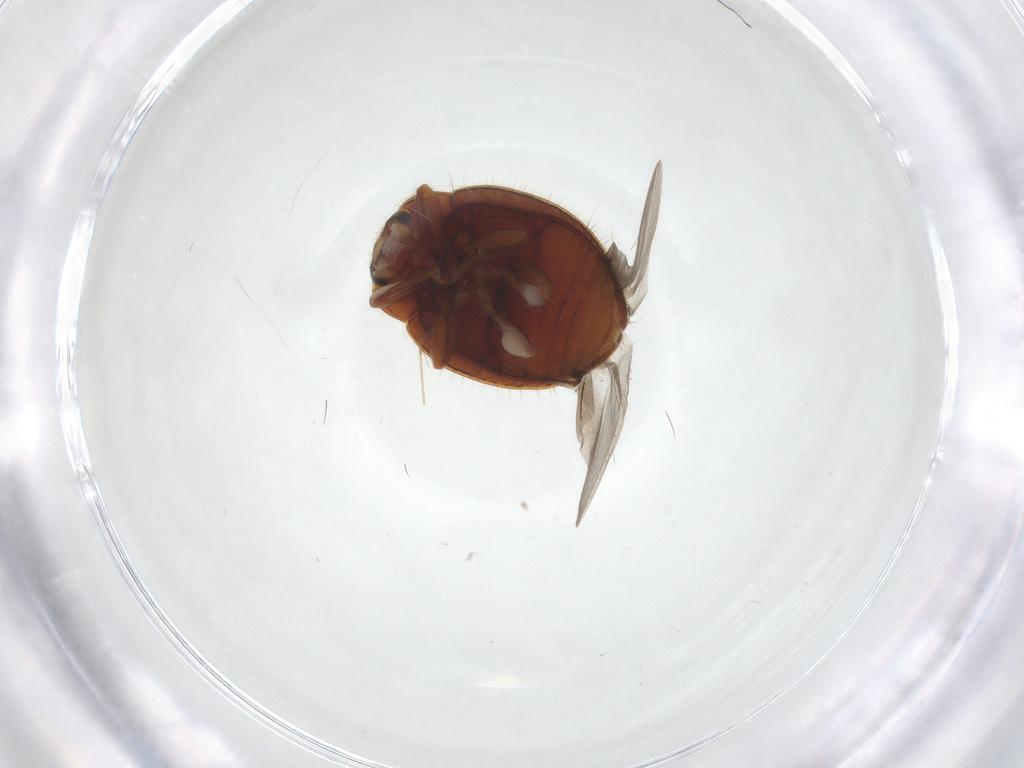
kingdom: Animalia
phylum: Arthropoda
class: Insecta
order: Coleoptera
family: Coccinellidae
